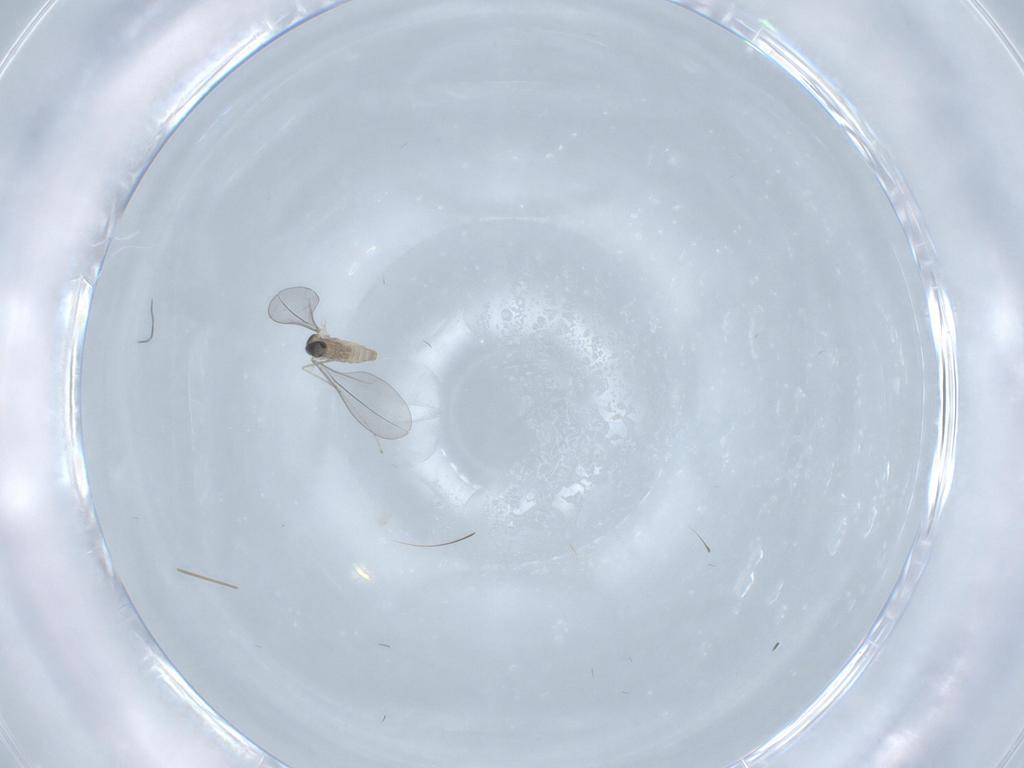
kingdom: Animalia
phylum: Arthropoda
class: Insecta
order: Diptera
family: Cecidomyiidae
